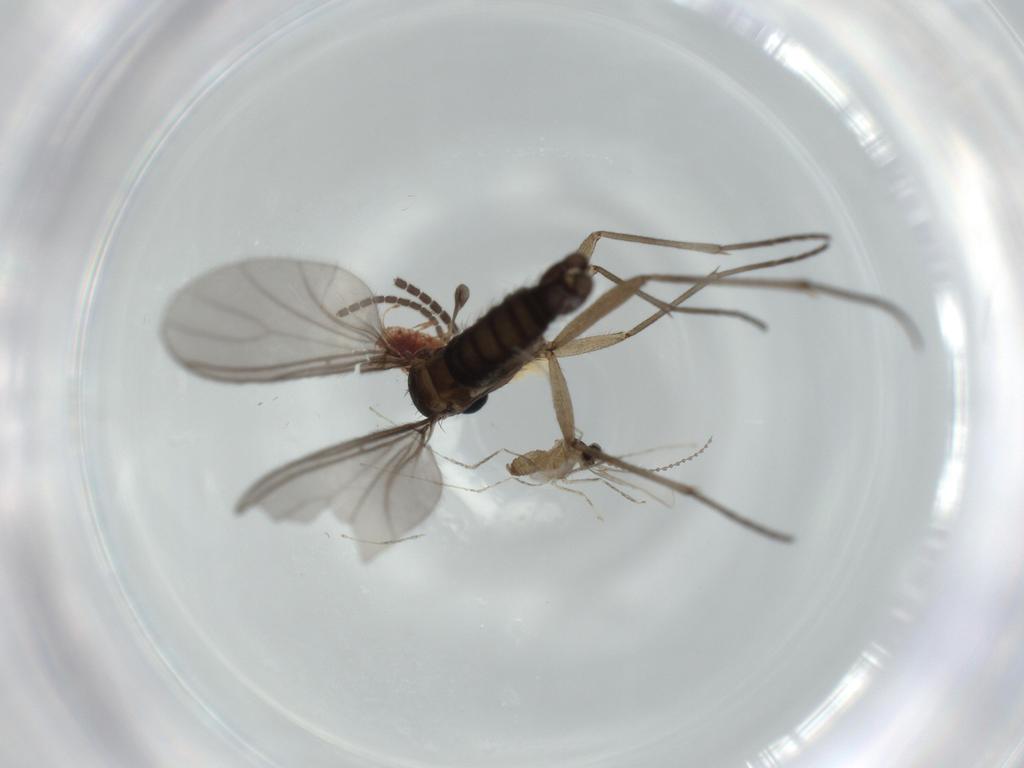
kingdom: Animalia
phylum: Arthropoda
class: Insecta
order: Diptera
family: Sciaridae
